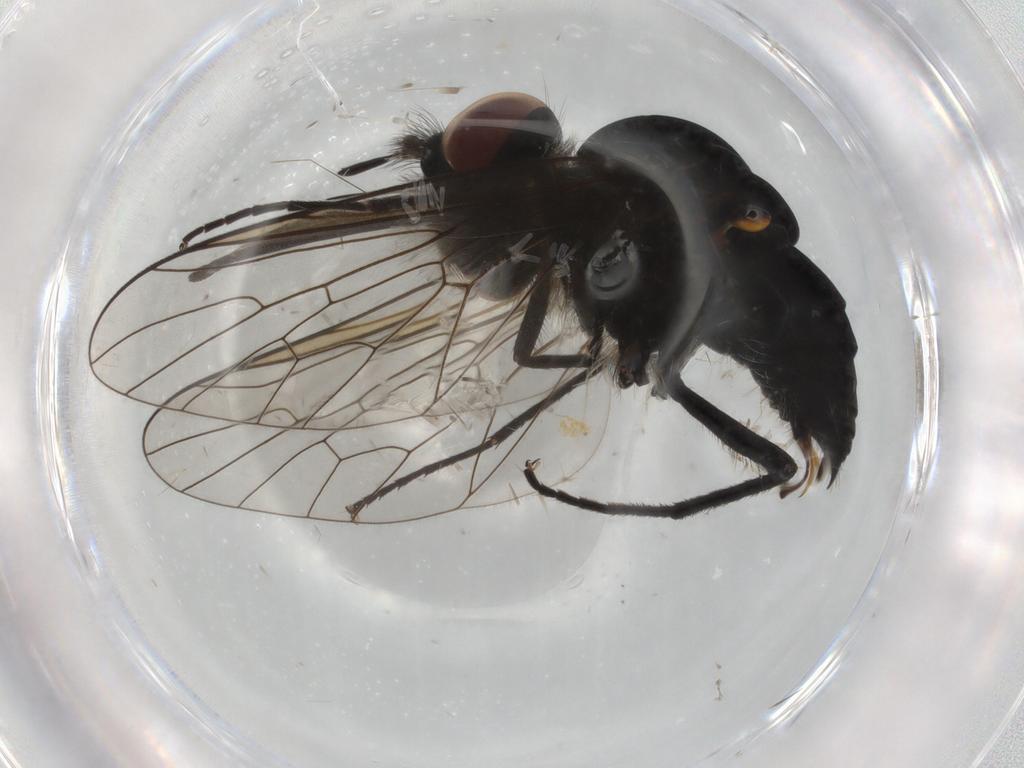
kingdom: Animalia
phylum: Arthropoda
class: Insecta
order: Diptera
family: Bombyliidae
